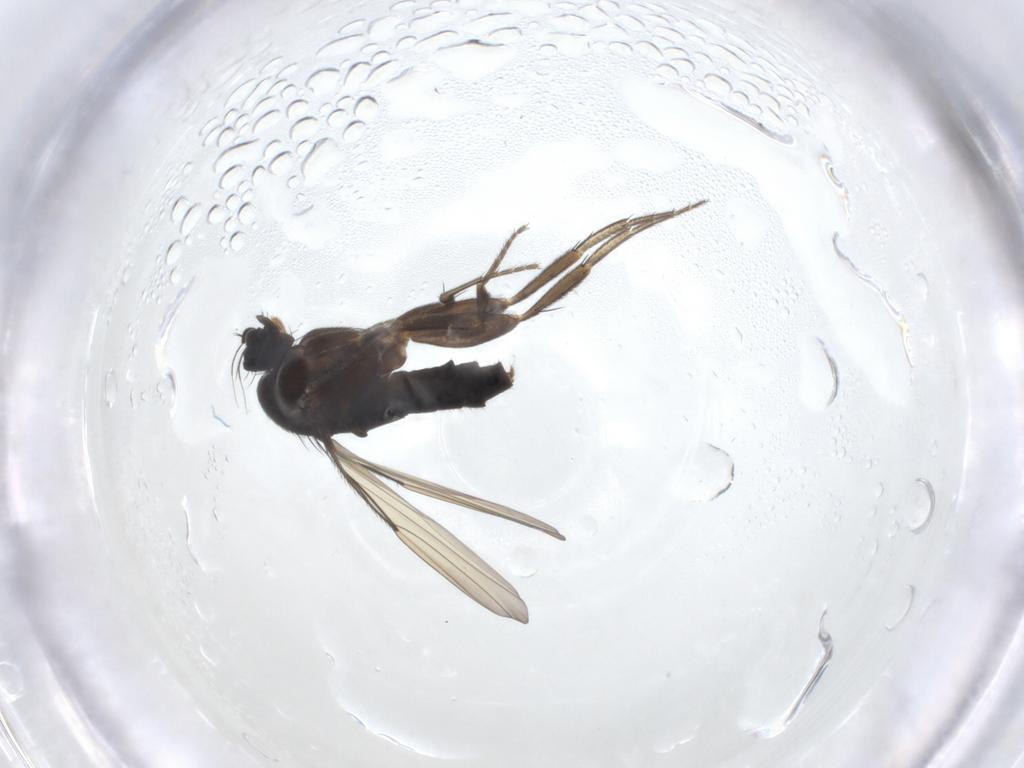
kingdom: Animalia
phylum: Arthropoda
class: Insecta
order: Diptera
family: Phoridae
